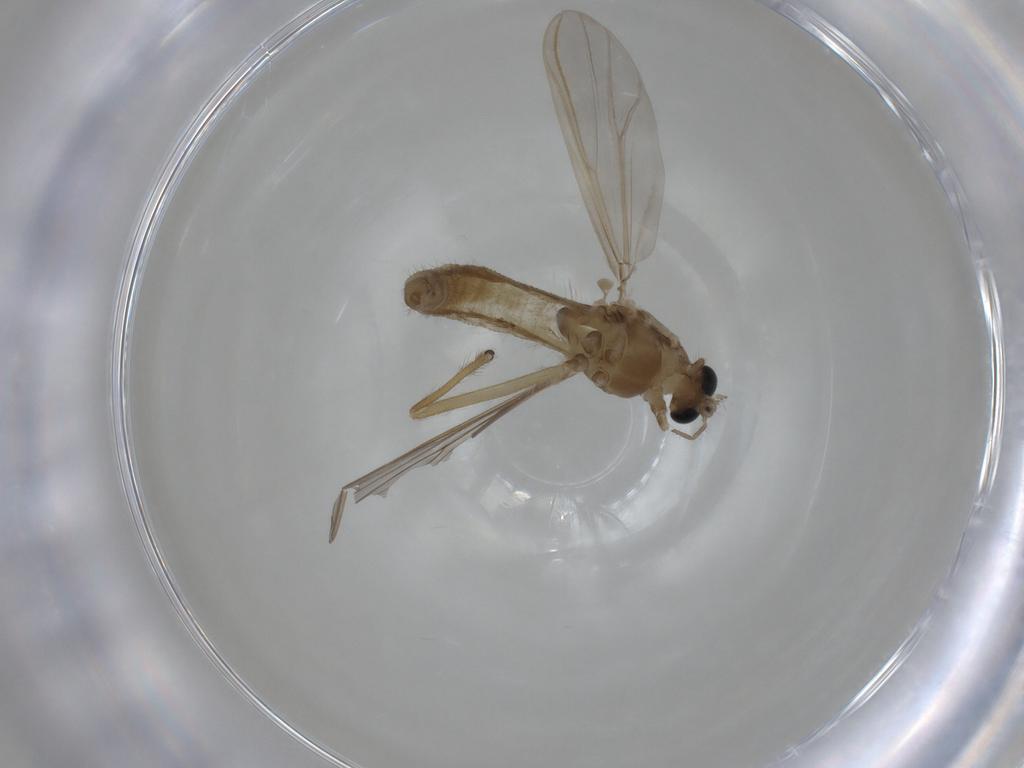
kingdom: Animalia
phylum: Arthropoda
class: Insecta
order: Diptera
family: Chironomidae
